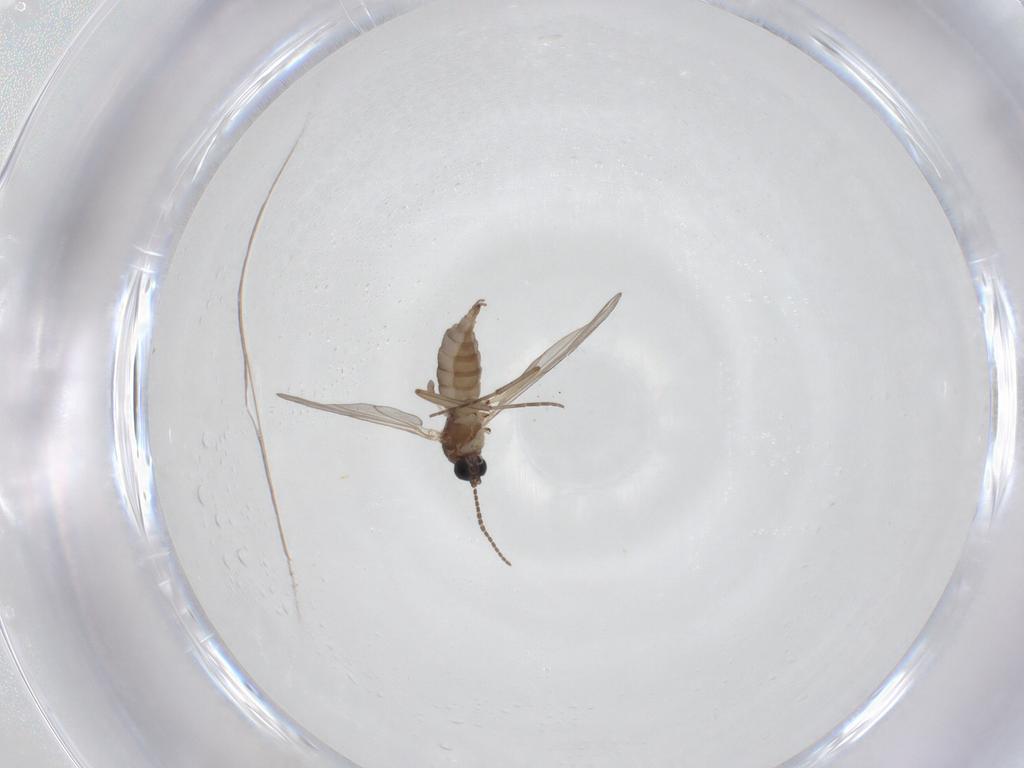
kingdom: Animalia
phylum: Arthropoda
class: Insecta
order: Diptera
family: Sciaridae
